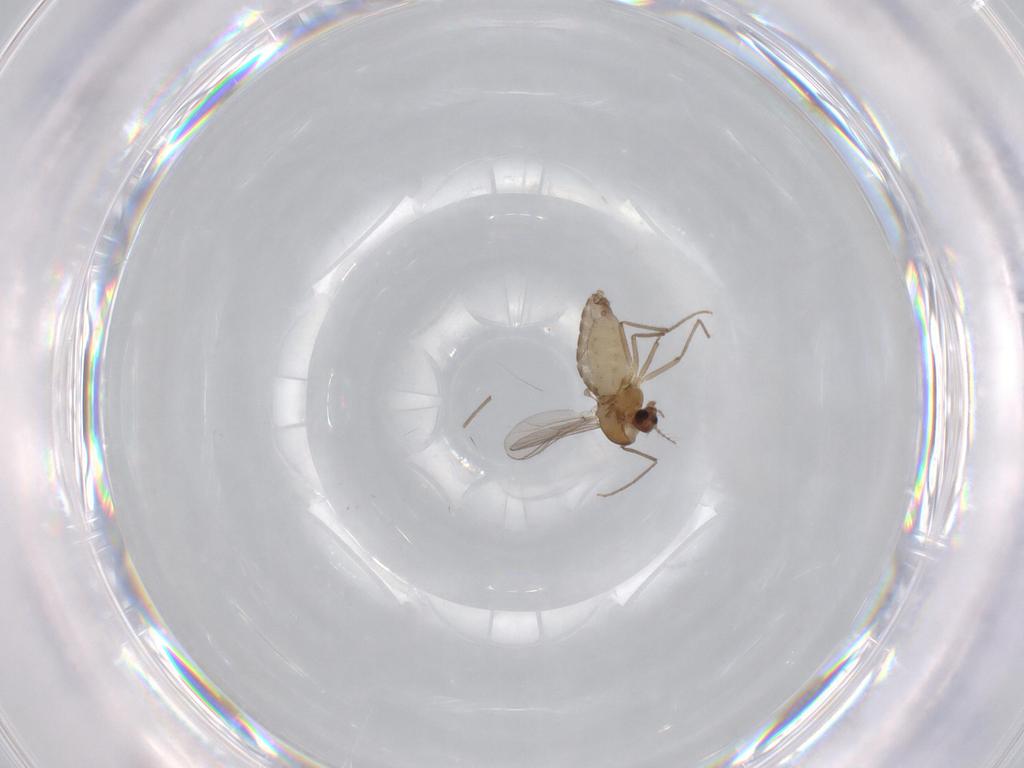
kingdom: Animalia
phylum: Arthropoda
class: Insecta
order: Diptera
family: Chironomidae
